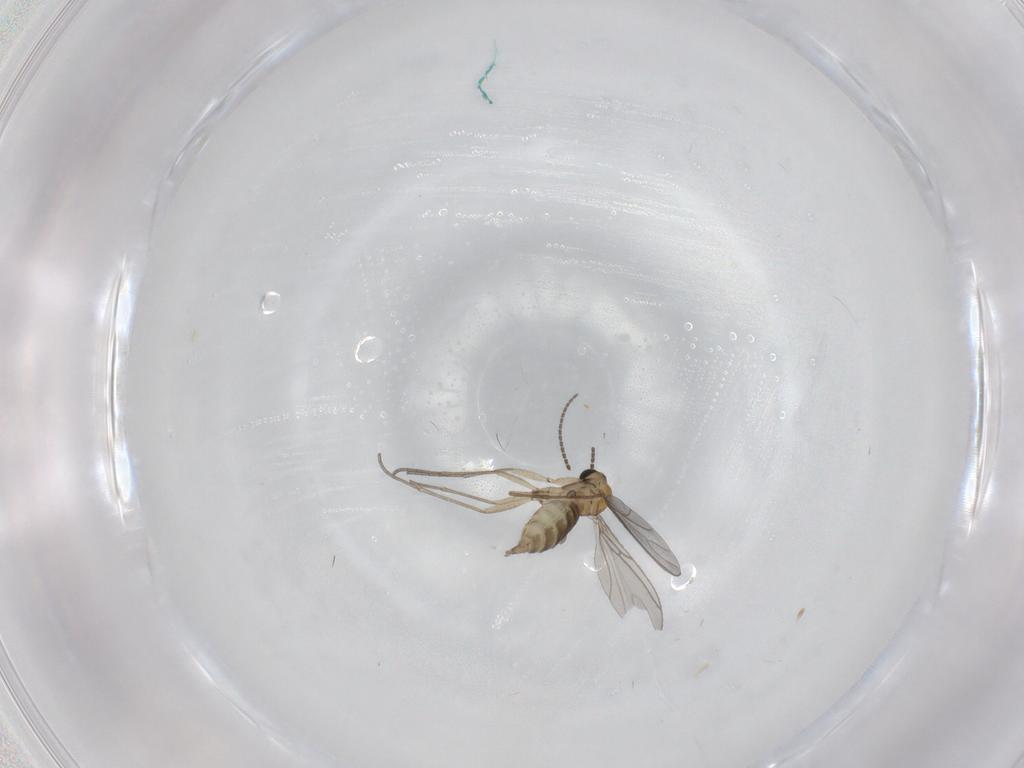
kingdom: Animalia
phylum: Arthropoda
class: Insecta
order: Diptera
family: Sciaridae
